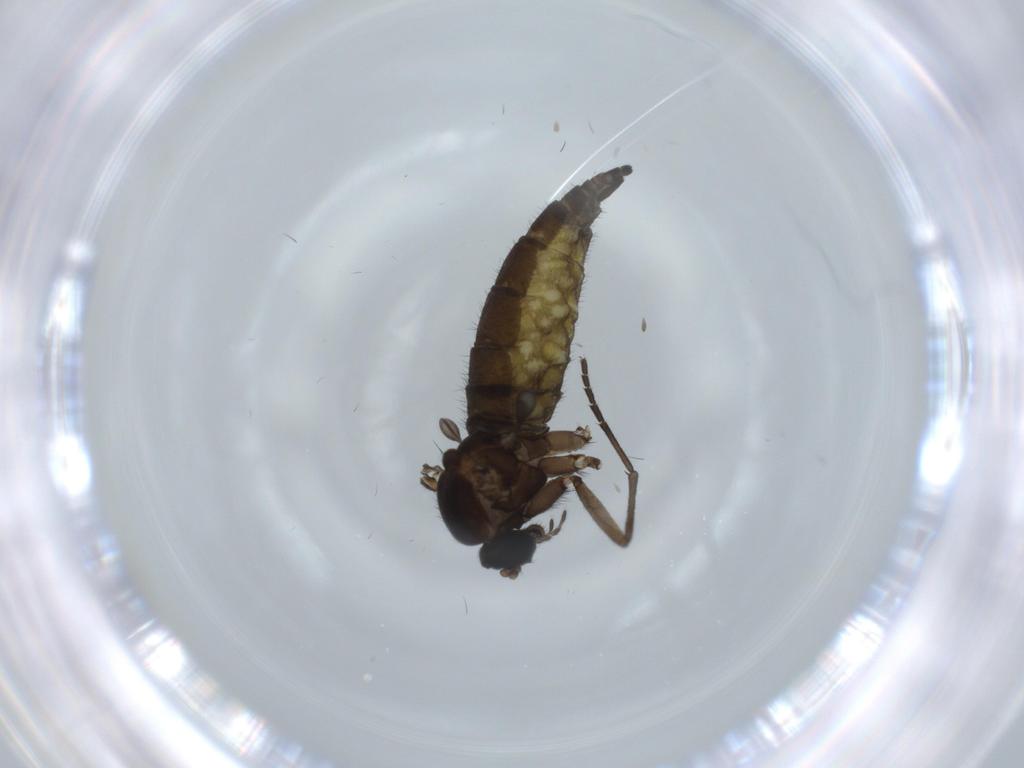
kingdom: Animalia
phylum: Arthropoda
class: Insecta
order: Diptera
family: Sciaridae
